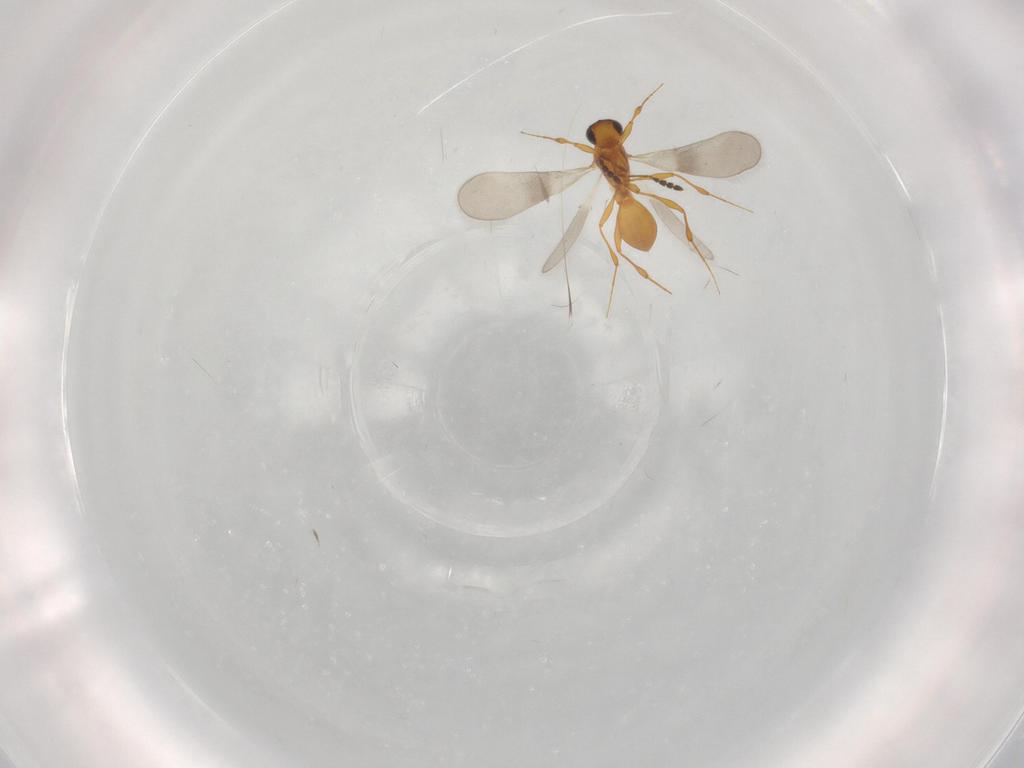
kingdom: Animalia
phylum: Arthropoda
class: Insecta
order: Hymenoptera
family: Platygastridae
